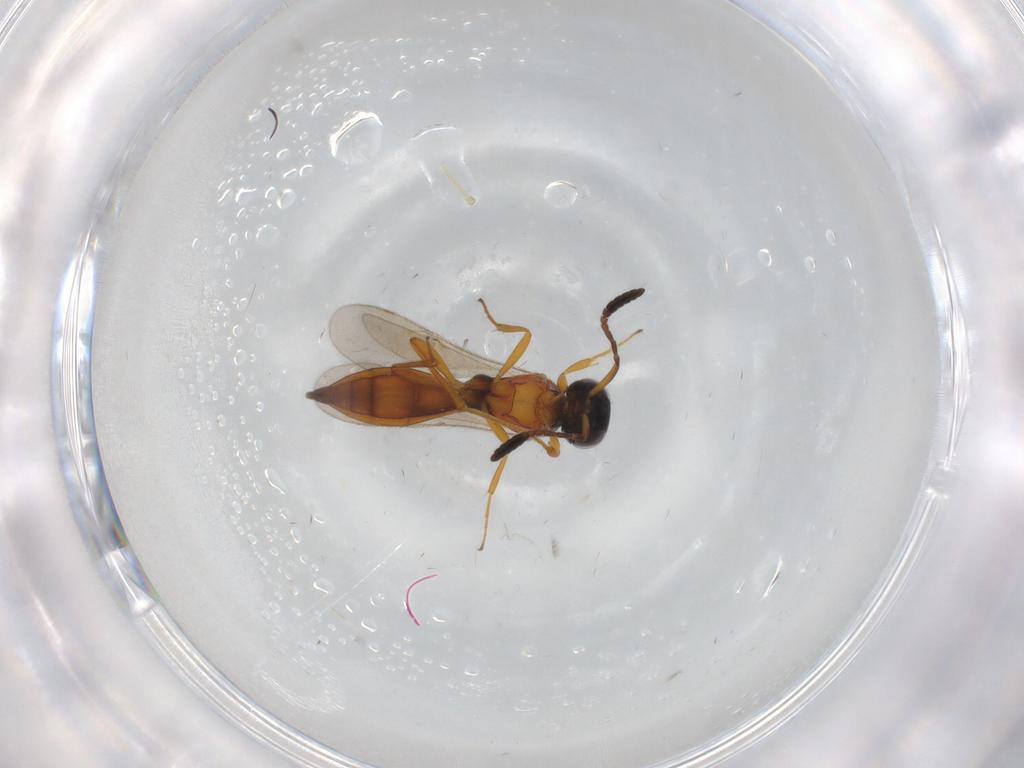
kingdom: Animalia
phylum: Arthropoda
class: Insecta
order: Hymenoptera
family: Scelionidae
